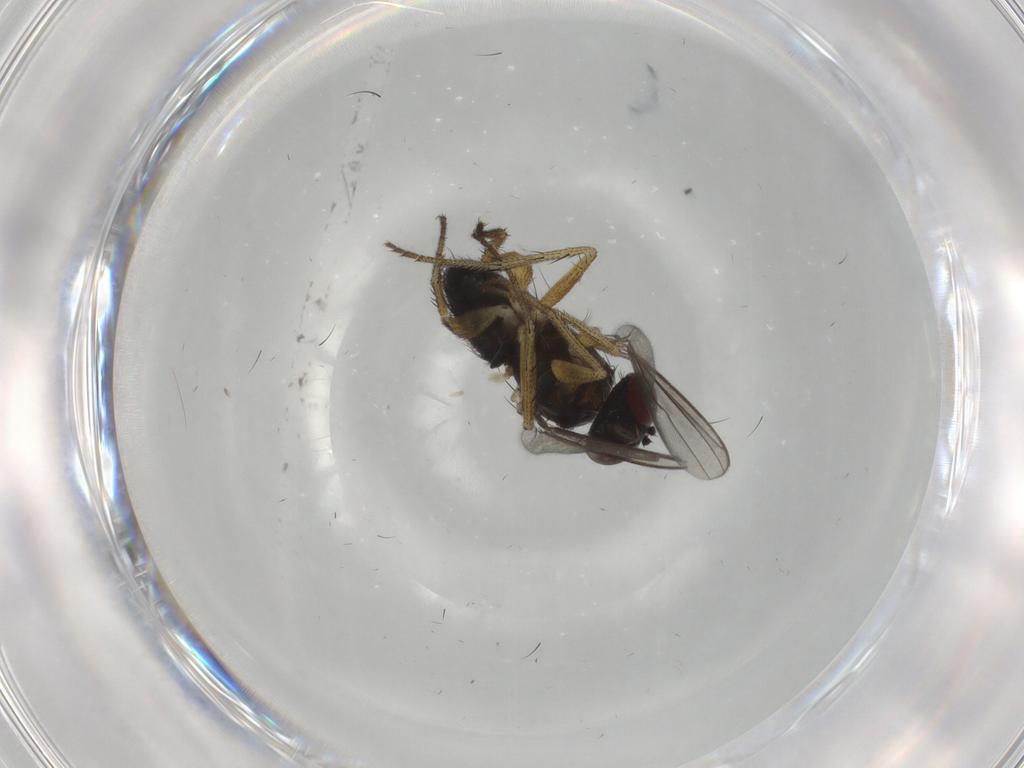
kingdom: Animalia
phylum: Arthropoda
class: Insecta
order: Diptera
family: Dolichopodidae
